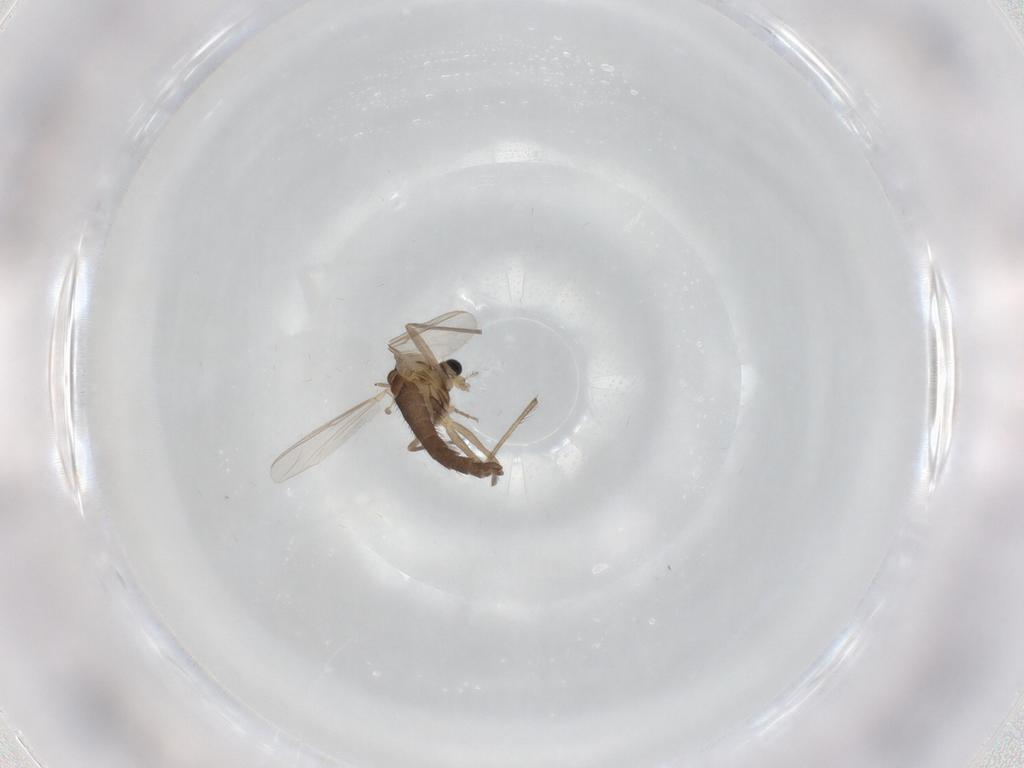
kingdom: Animalia
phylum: Arthropoda
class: Insecta
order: Diptera
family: Chironomidae
